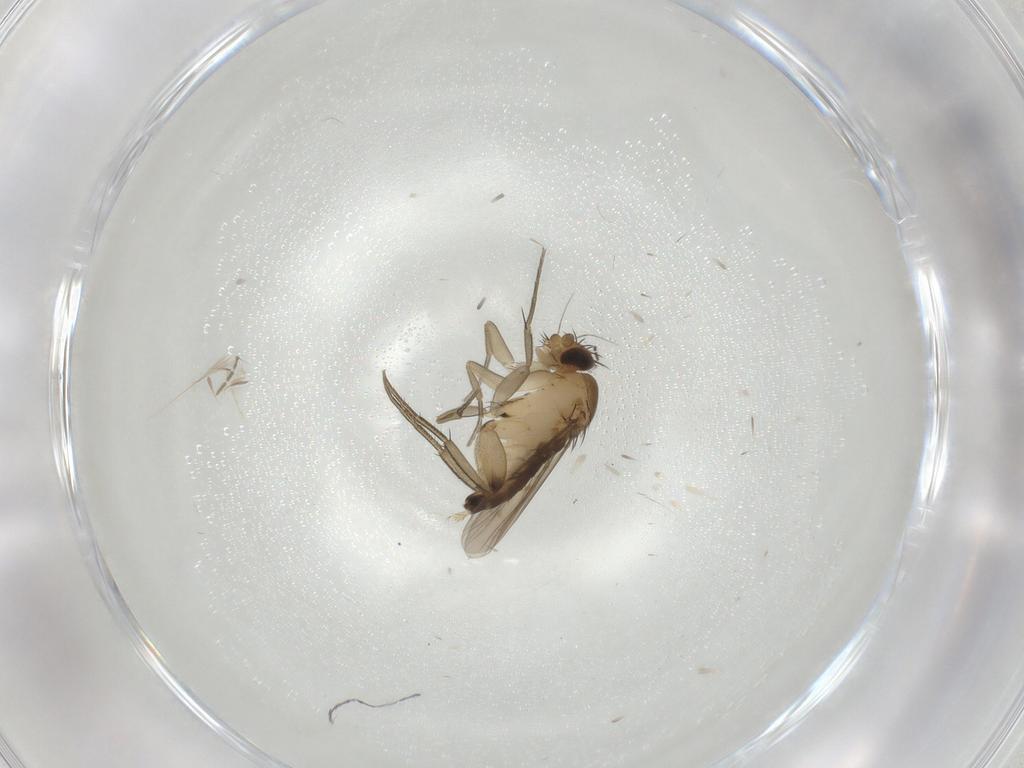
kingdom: Animalia
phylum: Arthropoda
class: Insecta
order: Diptera
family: Phoridae
